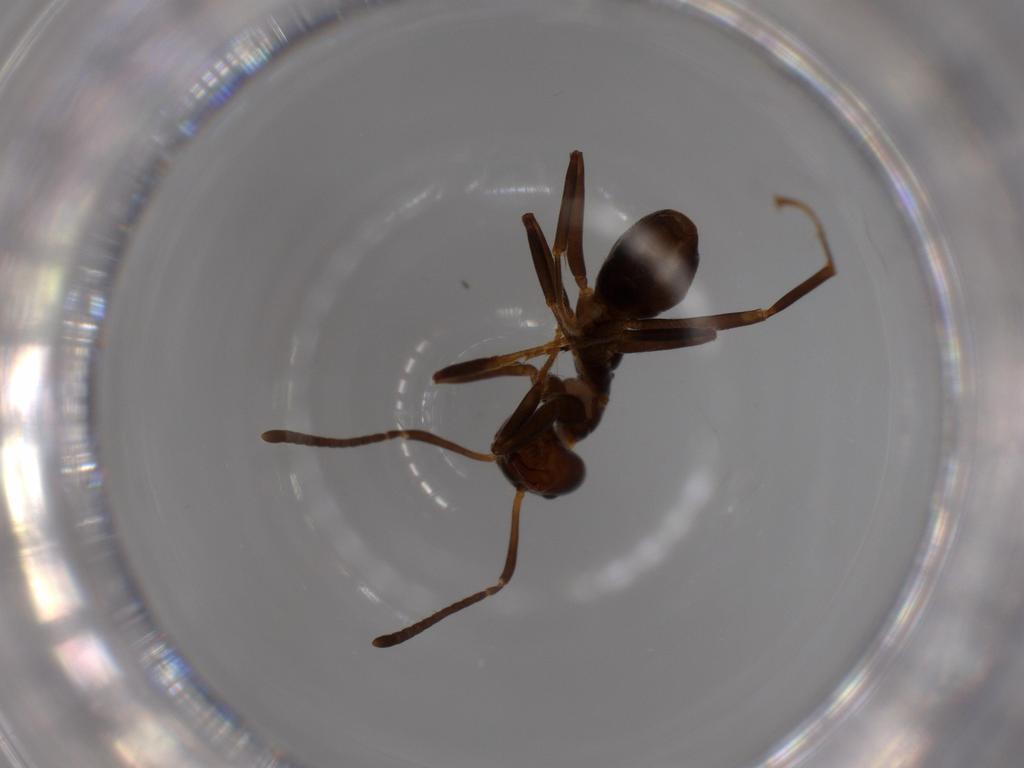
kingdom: Animalia
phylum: Arthropoda
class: Insecta
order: Hymenoptera
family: Formicidae
